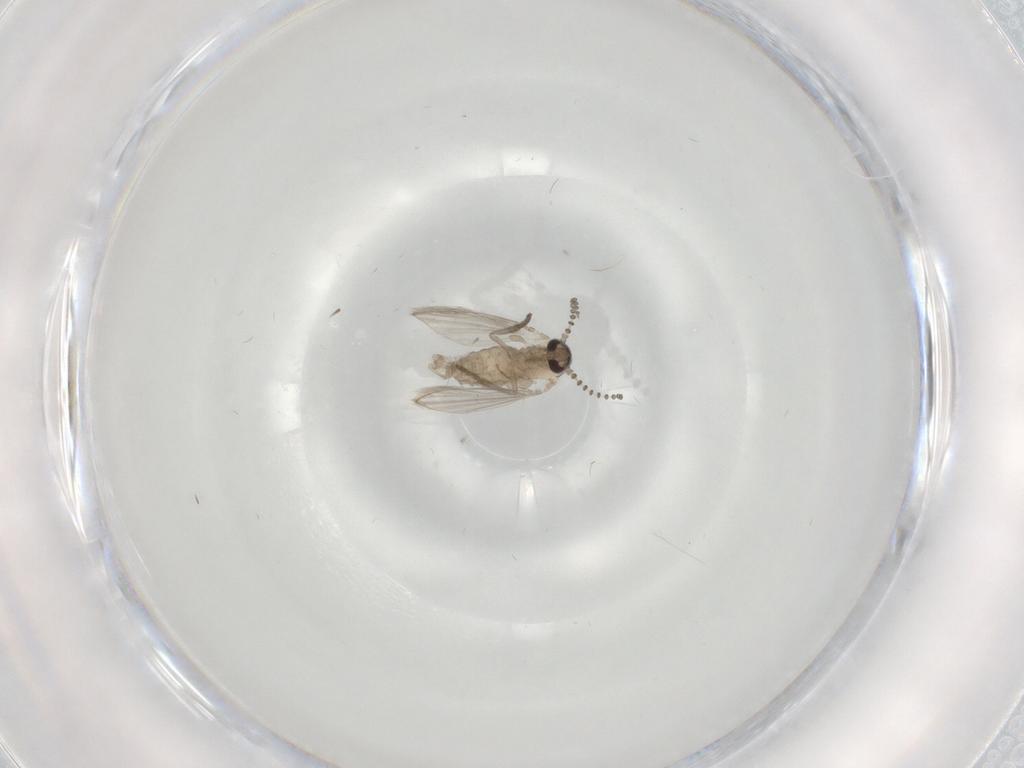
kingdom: Animalia
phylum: Arthropoda
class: Insecta
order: Diptera
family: Psychodidae
